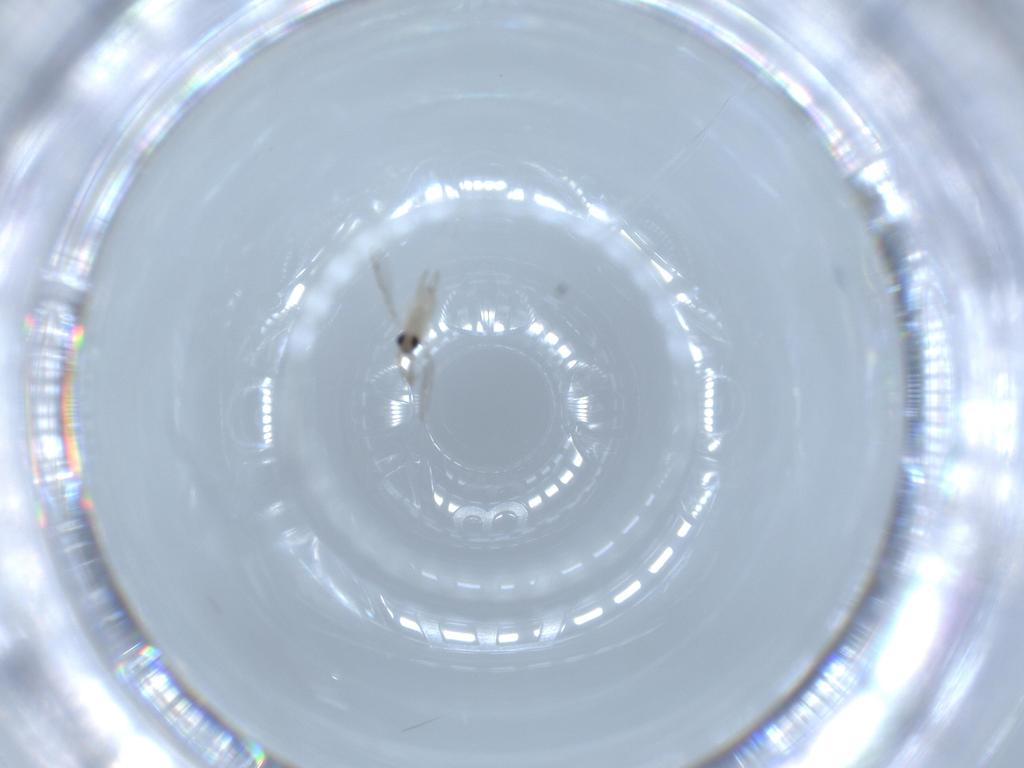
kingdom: Animalia
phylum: Arthropoda
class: Insecta
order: Diptera
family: Cecidomyiidae
